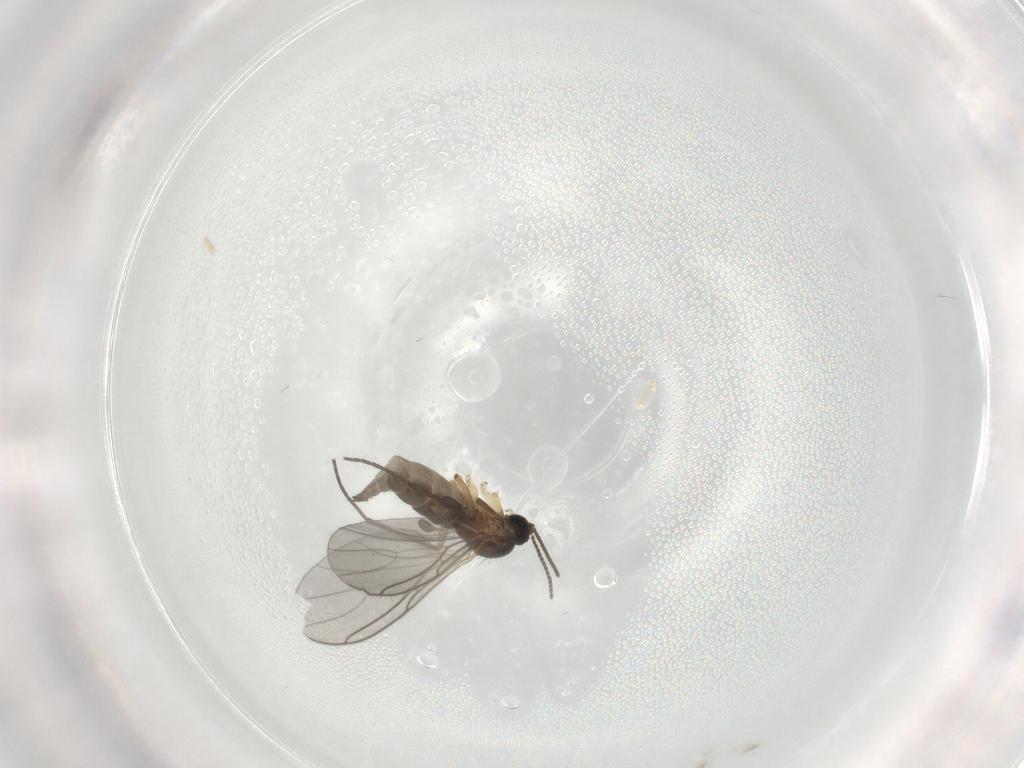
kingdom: Animalia
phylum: Arthropoda
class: Insecta
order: Diptera
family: Sciaridae
